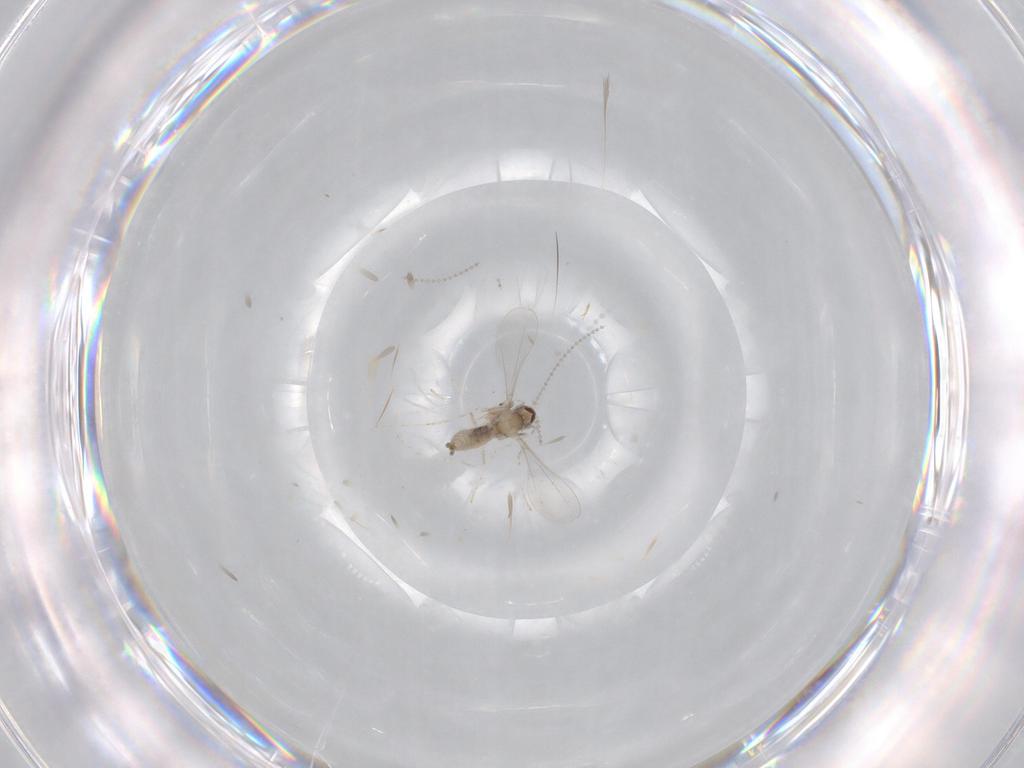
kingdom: Animalia
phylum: Arthropoda
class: Insecta
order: Diptera
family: Cecidomyiidae
